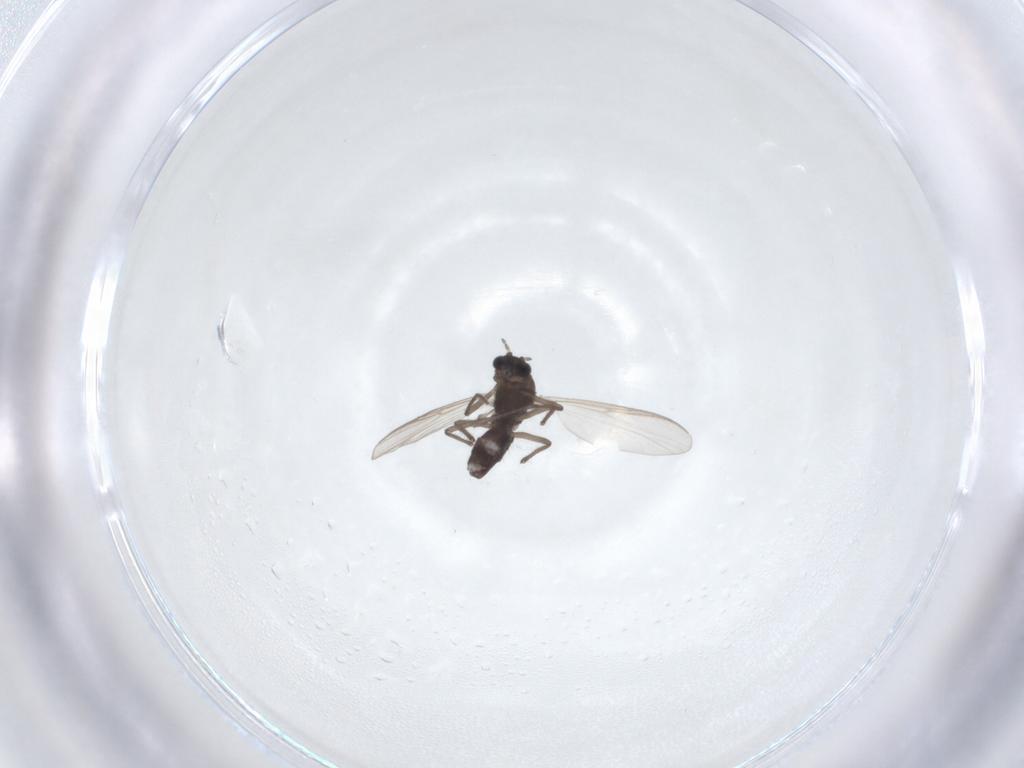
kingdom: Animalia
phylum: Arthropoda
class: Insecta
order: Diptera
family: Chironomidae
